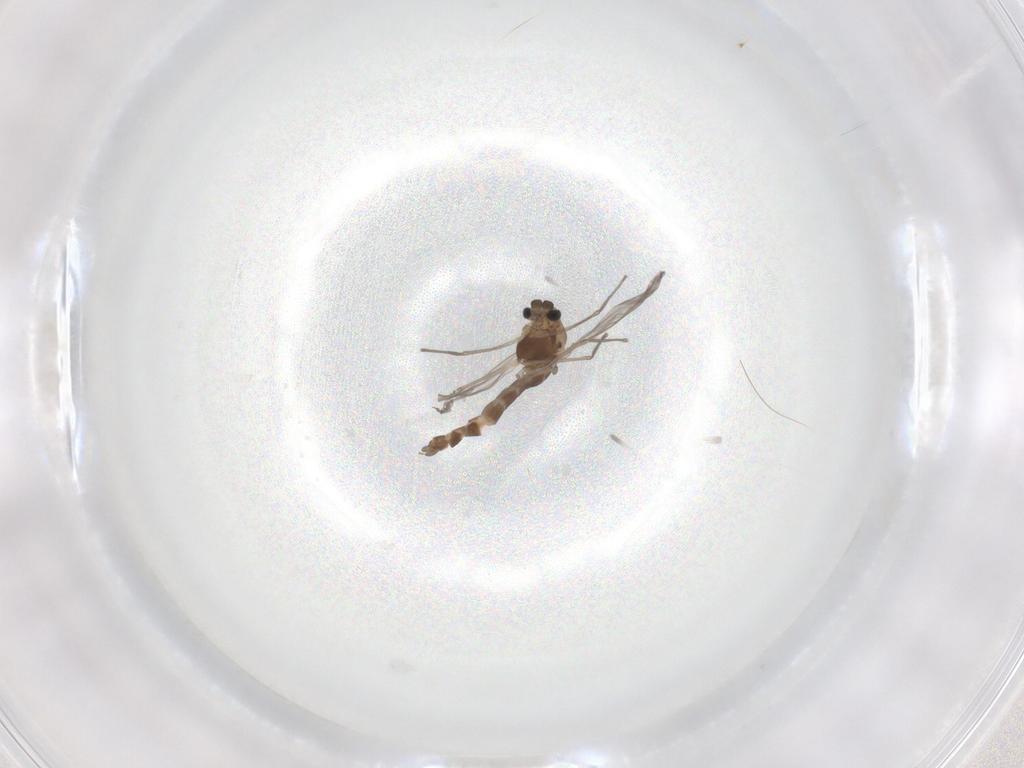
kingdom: Animalia
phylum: Arthropoda
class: Insecta
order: Diptera
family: Chironomidae
